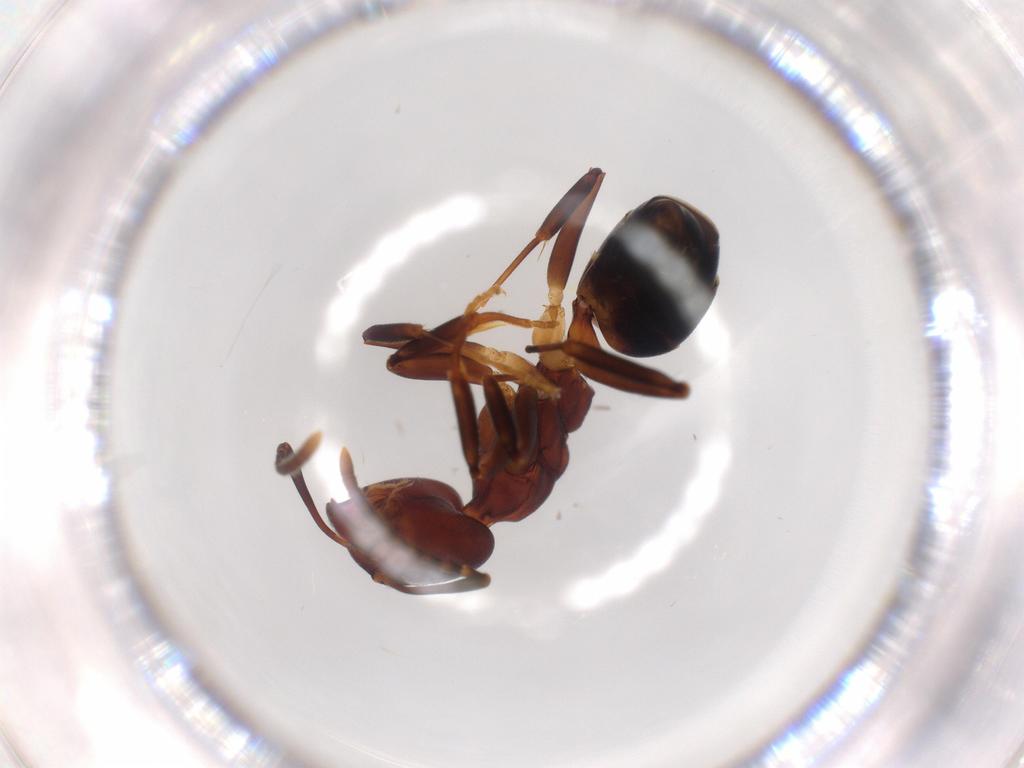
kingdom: Animalia
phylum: Arthropoda
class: Insecta
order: Hymenoptera
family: Formicidae
